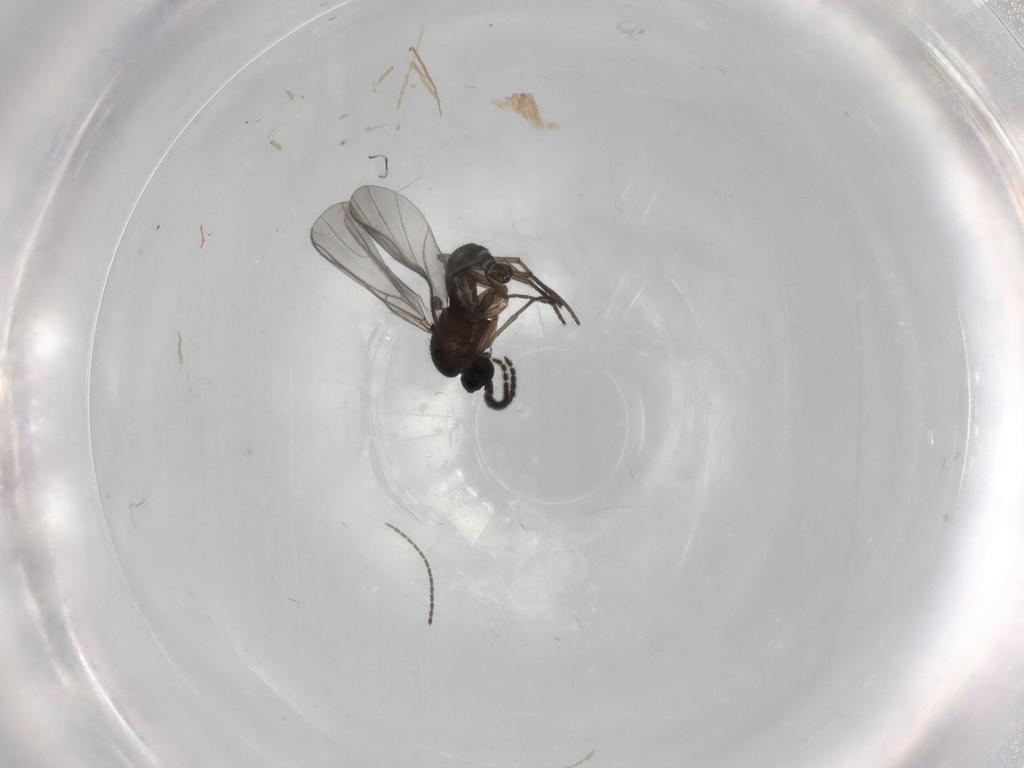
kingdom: Animalia
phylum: Arthropoda
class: Insecta
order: Diptera
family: Sciaridae
